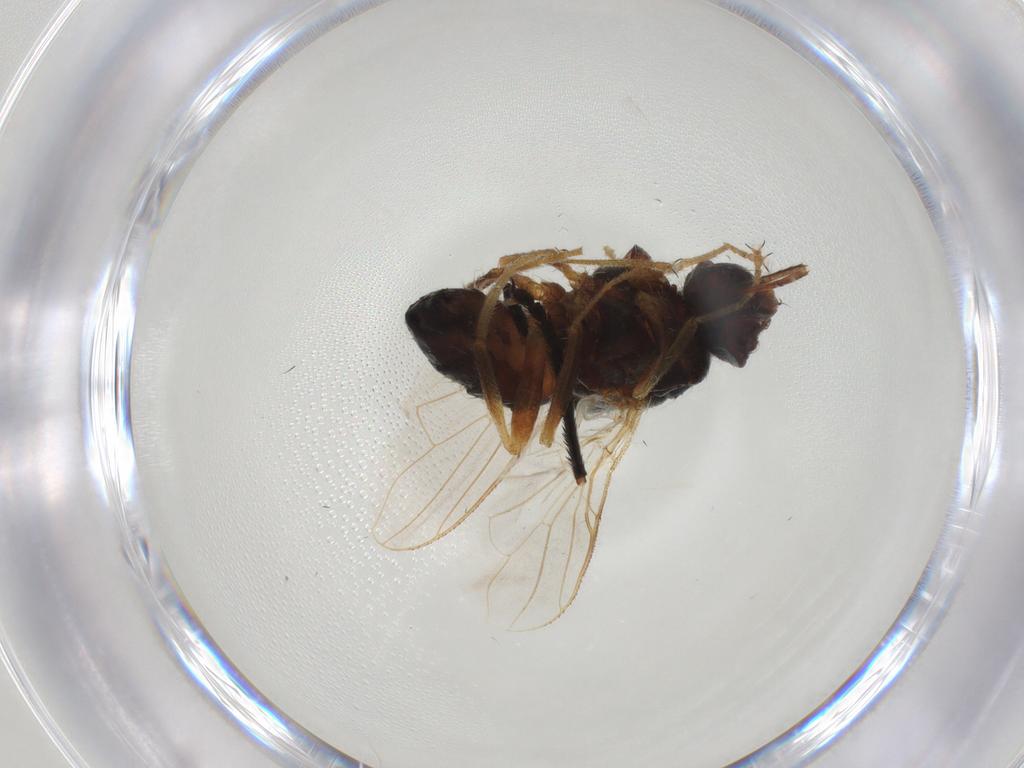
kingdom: Animalia
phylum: Arthropoda
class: Insecta
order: Diptera
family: Muscidae
